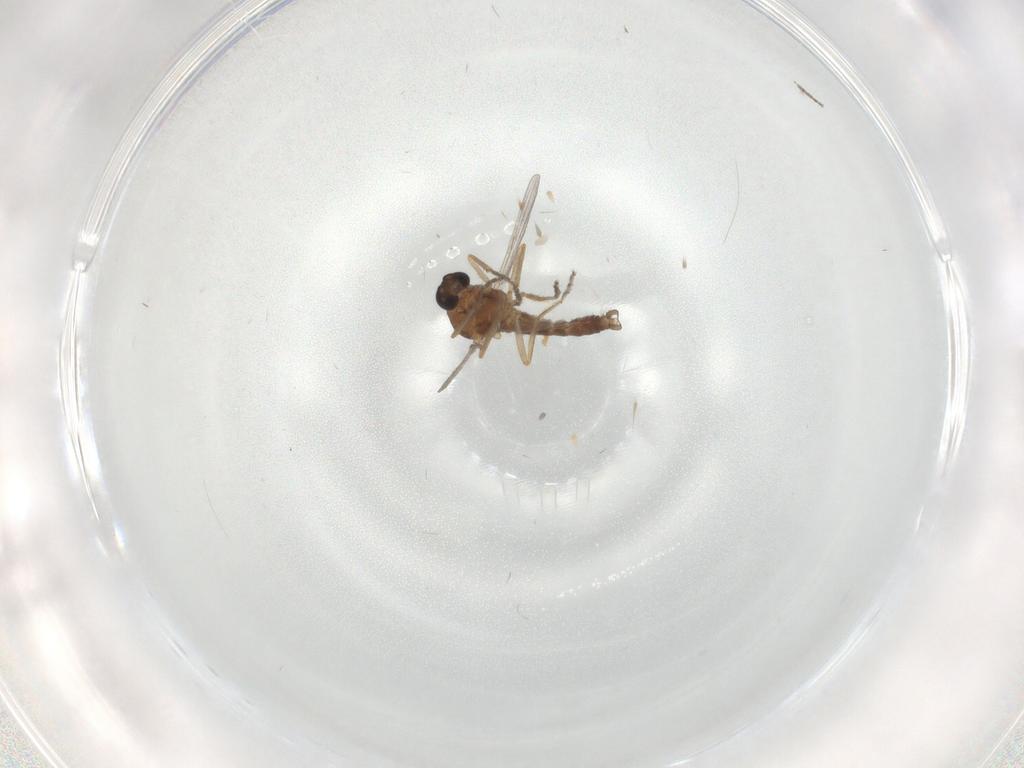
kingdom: Animalia
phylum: Arthropoda
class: Insecta
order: Diptera
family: Ceratopogonidae
